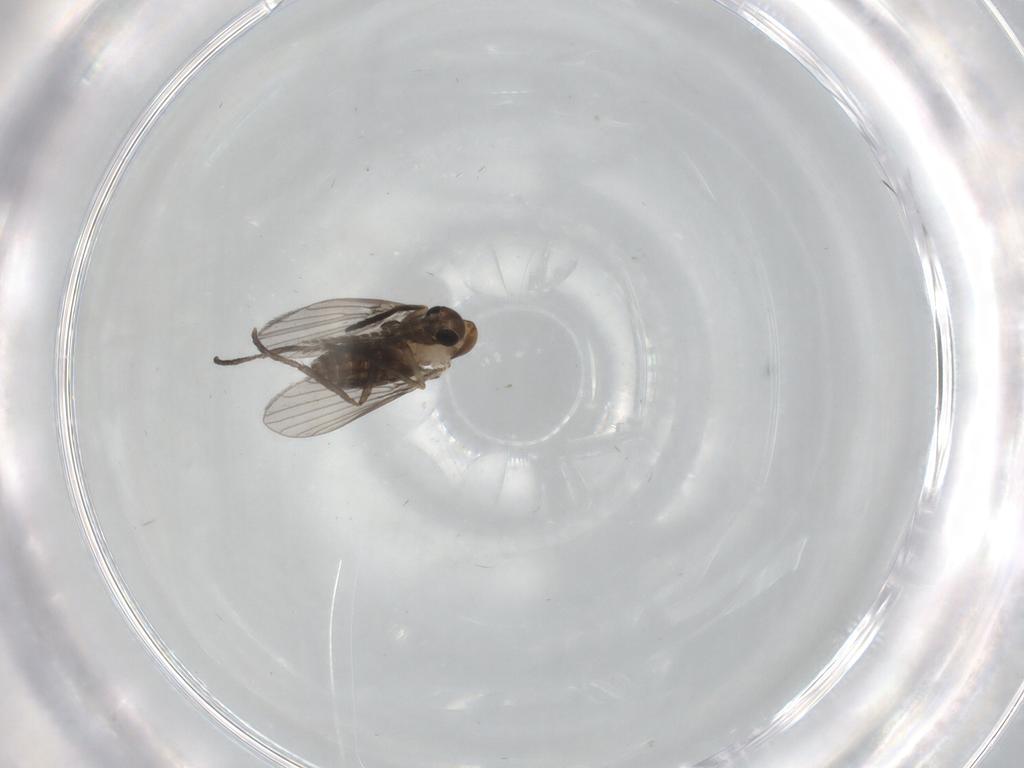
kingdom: Animalia
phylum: Arthropoda
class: Insecta
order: Diptera
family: Psychodidae
